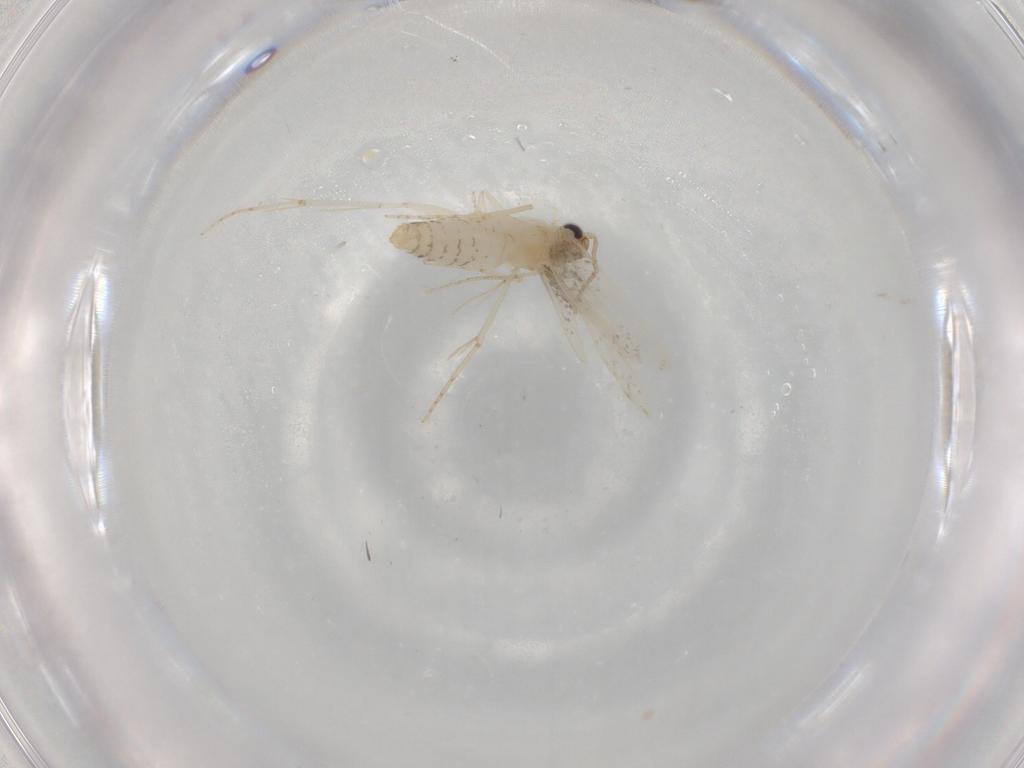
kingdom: Animalia
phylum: Arthropoda
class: Insecta
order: Lepidoptera
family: Tineidae
